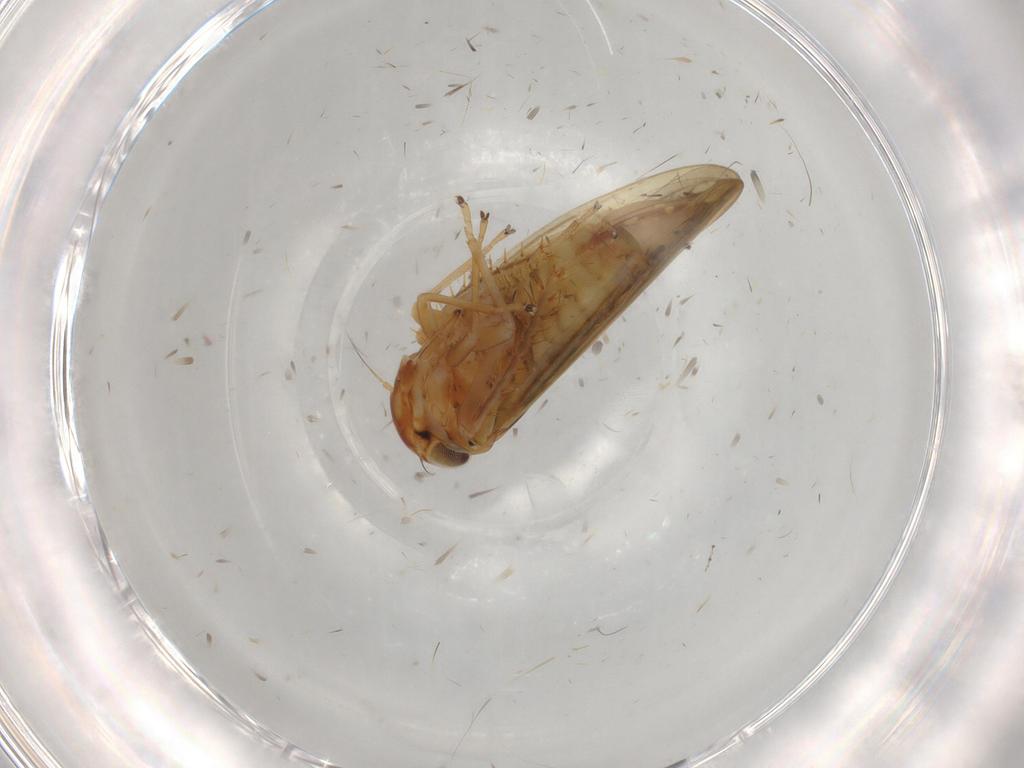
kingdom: Animalia
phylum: Arthropoda
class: Insecta
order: Hemiptera
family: Cicadellidae
